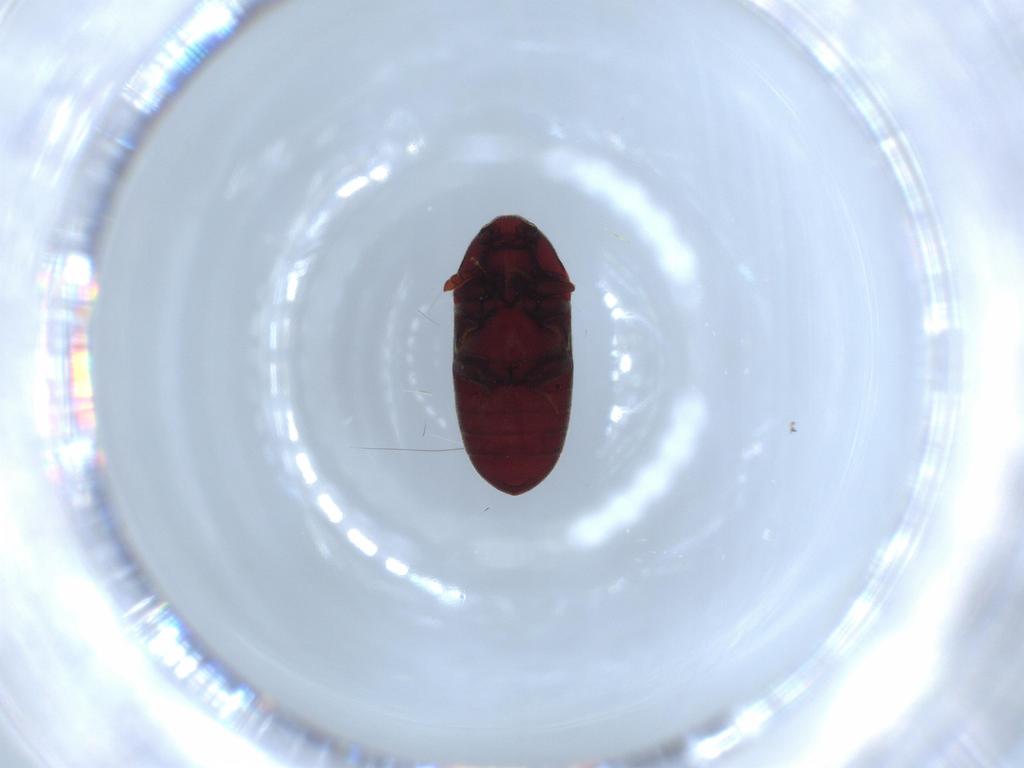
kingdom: Animalia
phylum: Arthropoda
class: Insecta
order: Coleoptera
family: Throscidae
